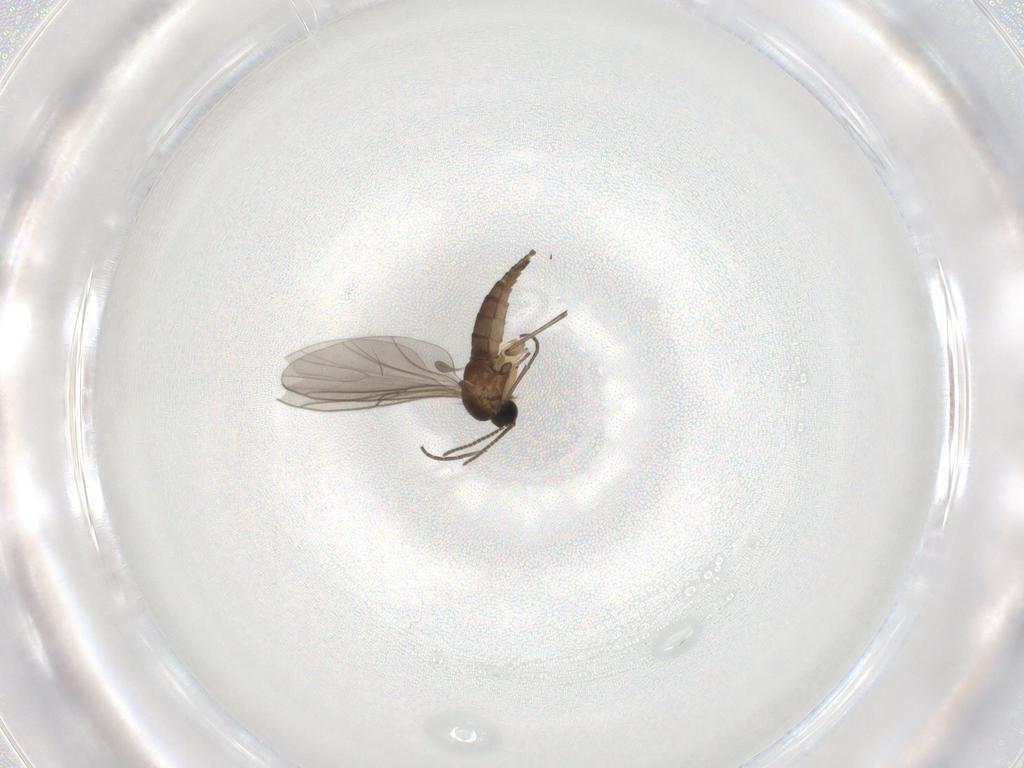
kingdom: Animalia
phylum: Arthropoda
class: Insecta
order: Diptera
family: Sciaridae
